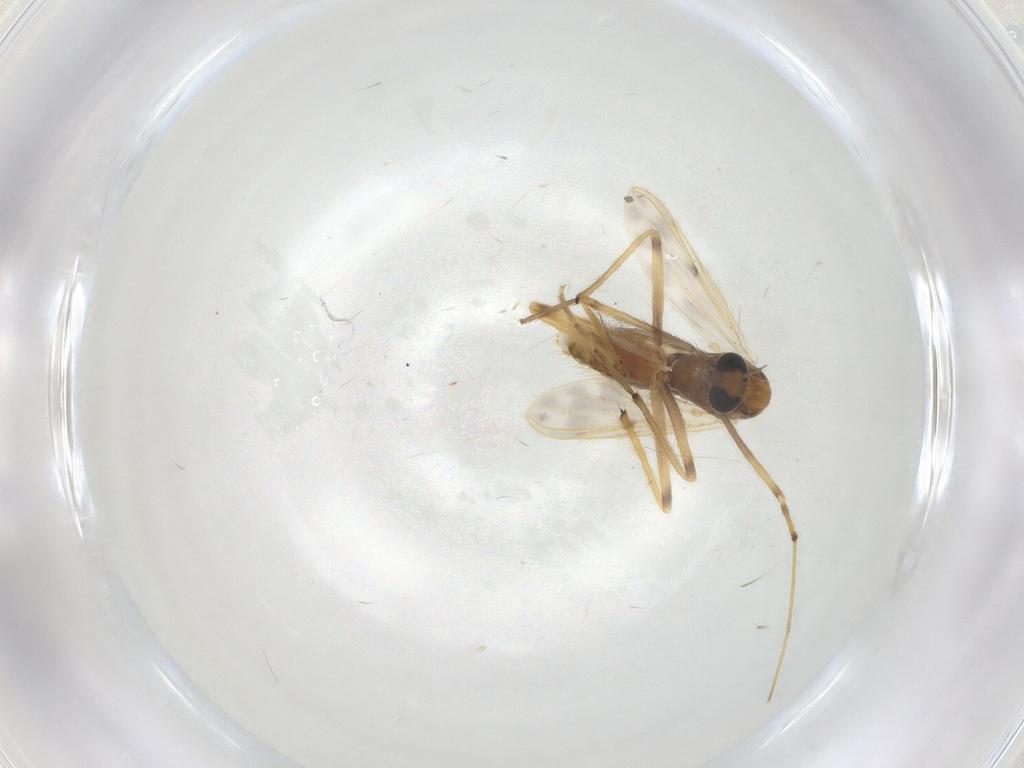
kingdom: Animalia
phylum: Arthropoda
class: Insecta
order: Diptera
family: Chironomidae
